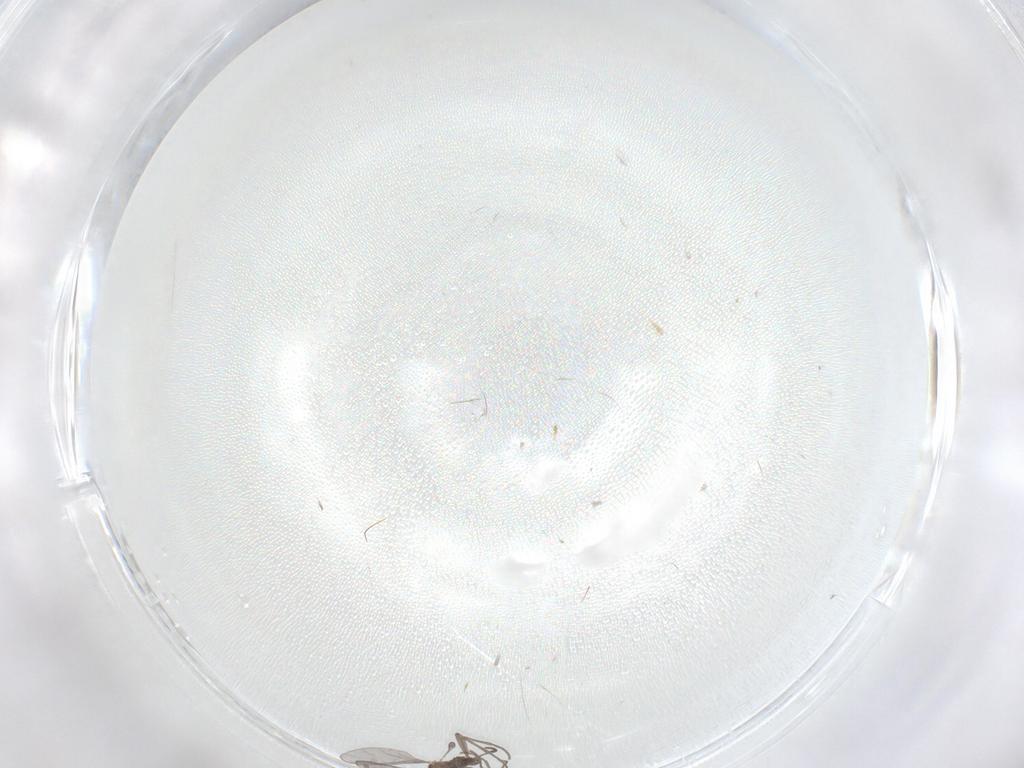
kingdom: Animalia
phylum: Arthropoda
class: Insecta
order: Diptera
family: Sciaridae
